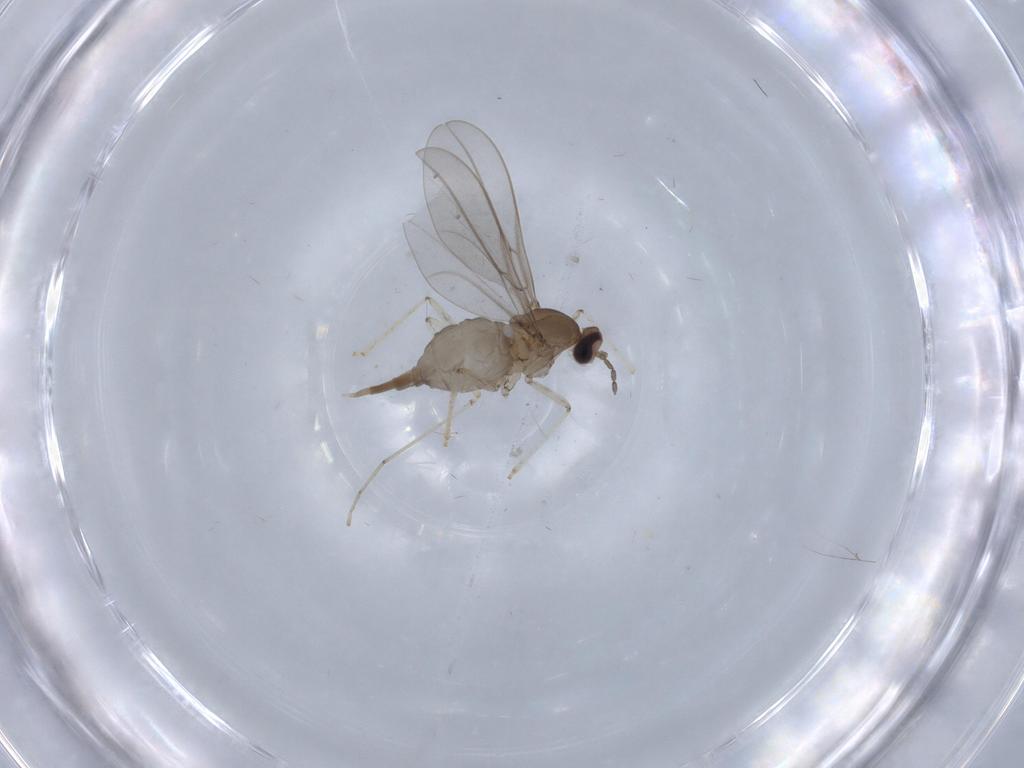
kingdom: Animalia
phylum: Arthropoda
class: Insecta
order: Diptera
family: Cecidomyiidae
